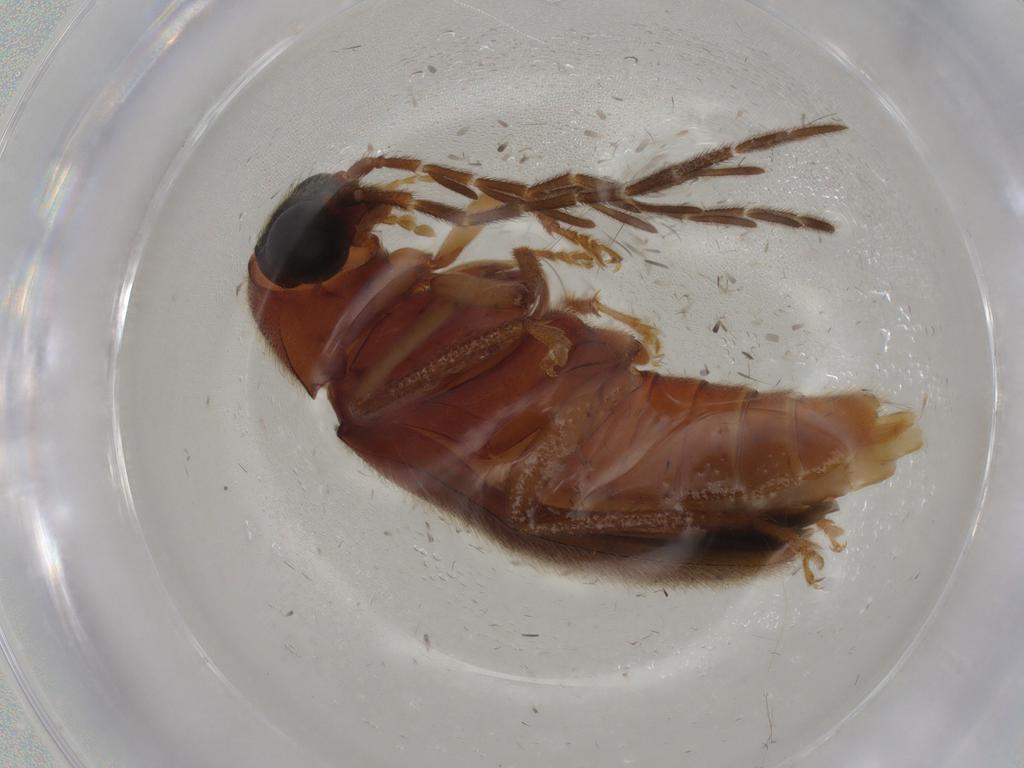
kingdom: Animalia
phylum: Arthropoda
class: Insecta
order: Coleoptera
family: Ptilodactylidae
